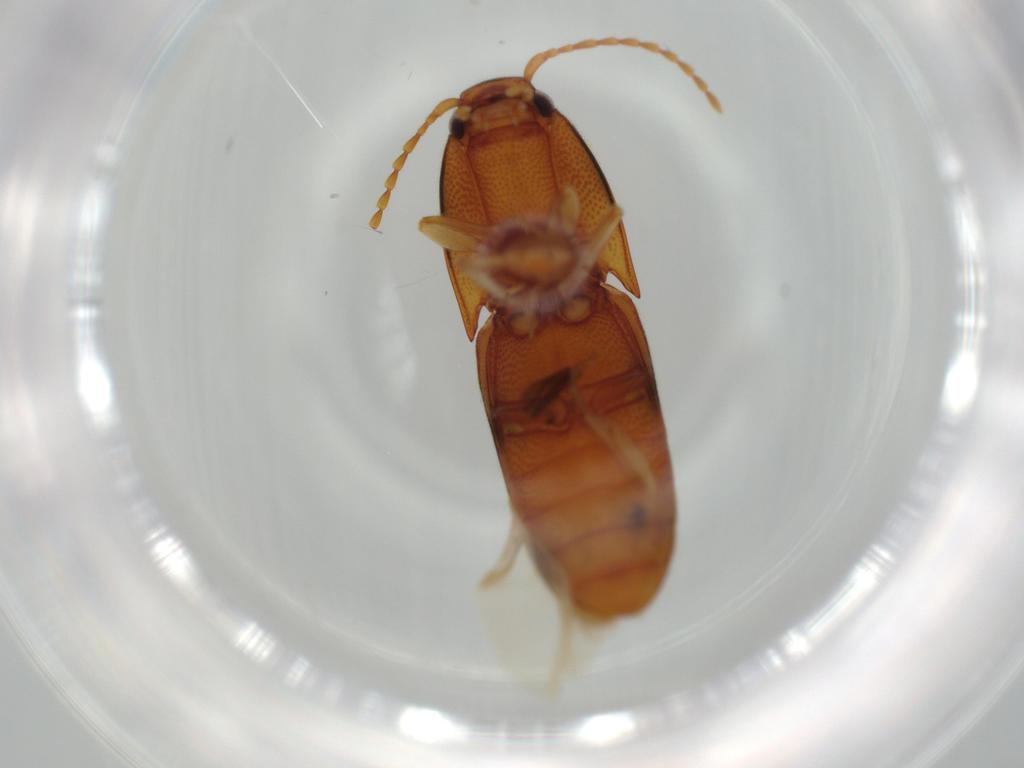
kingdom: Animalia
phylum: Arthropoda
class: Insecta
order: Coleoptera
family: Elateridae
